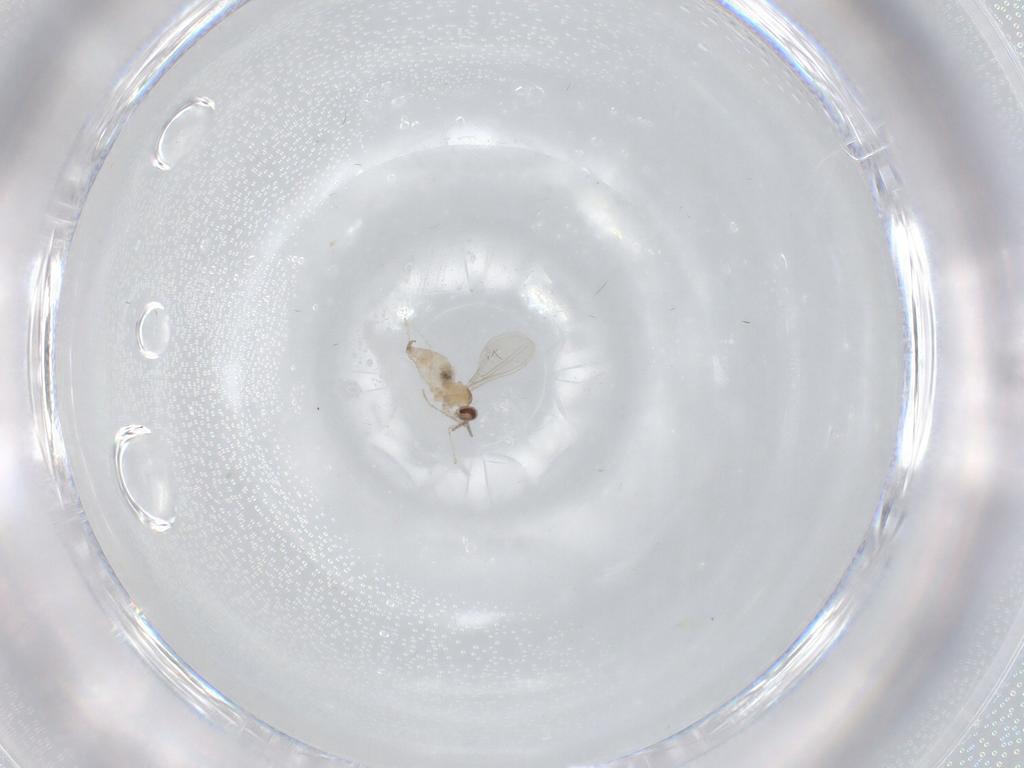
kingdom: Animalia
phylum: Arthropoda
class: Insecta
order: Diptera
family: Cecidomyiidae
